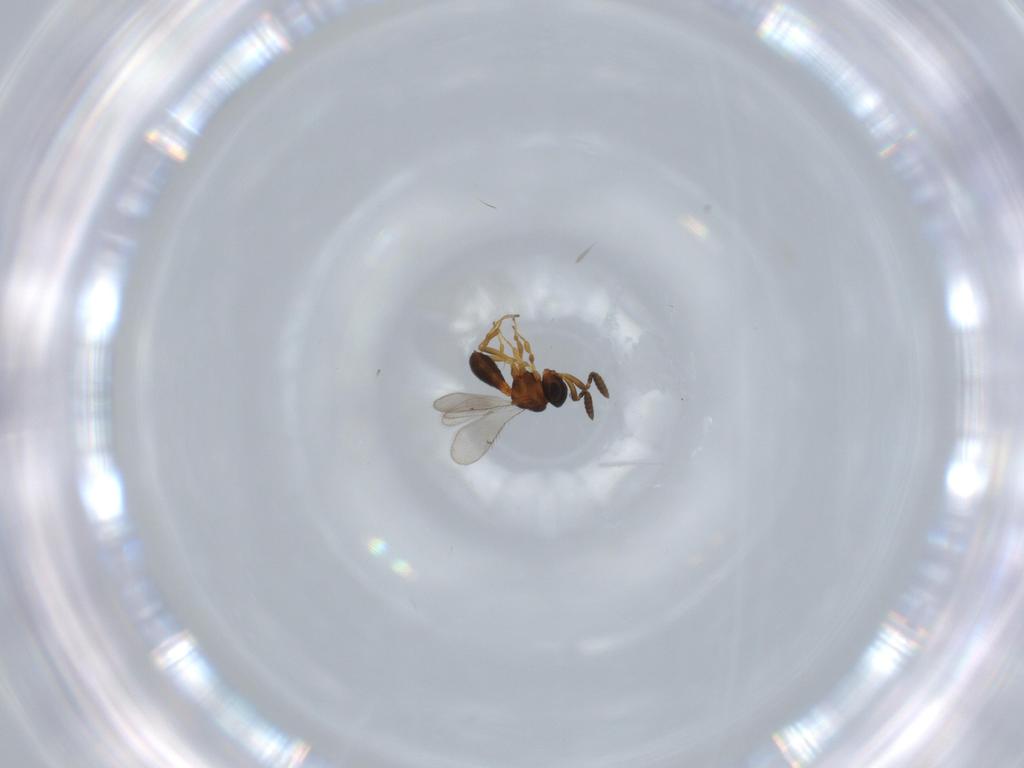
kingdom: Animalia
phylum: Arthropoda
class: Insecta
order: Hymenoptera
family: Scelionidae
